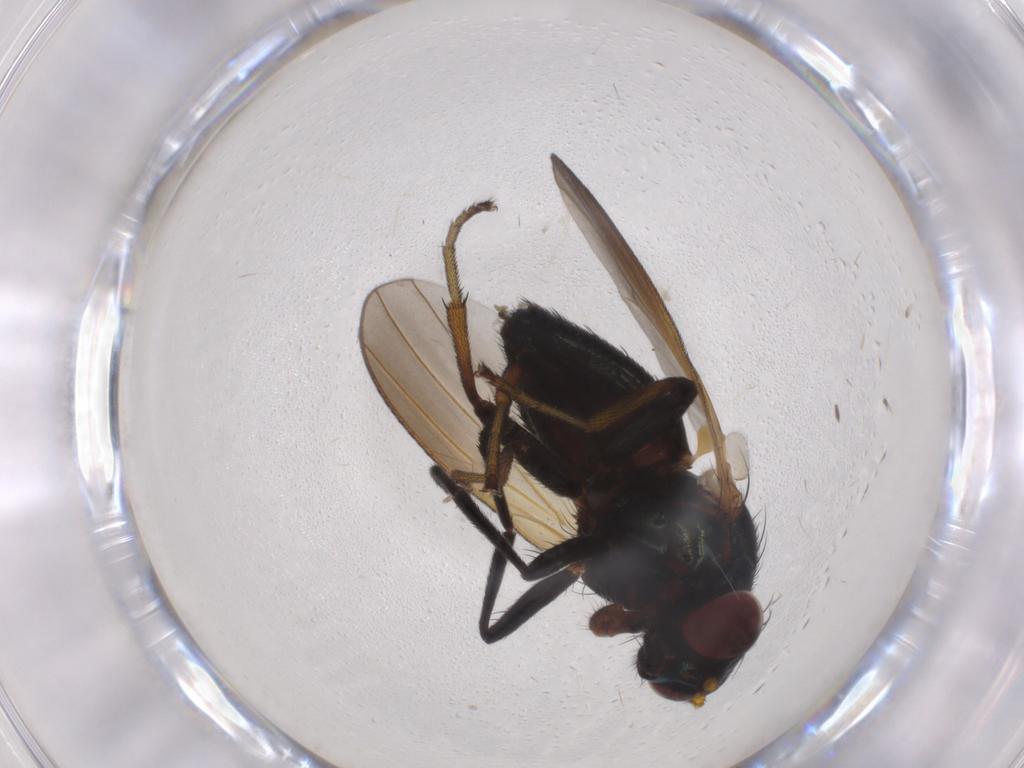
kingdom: Animalia
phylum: Arthropoda
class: Insecta
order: Diptera
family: Lauxaniidae
